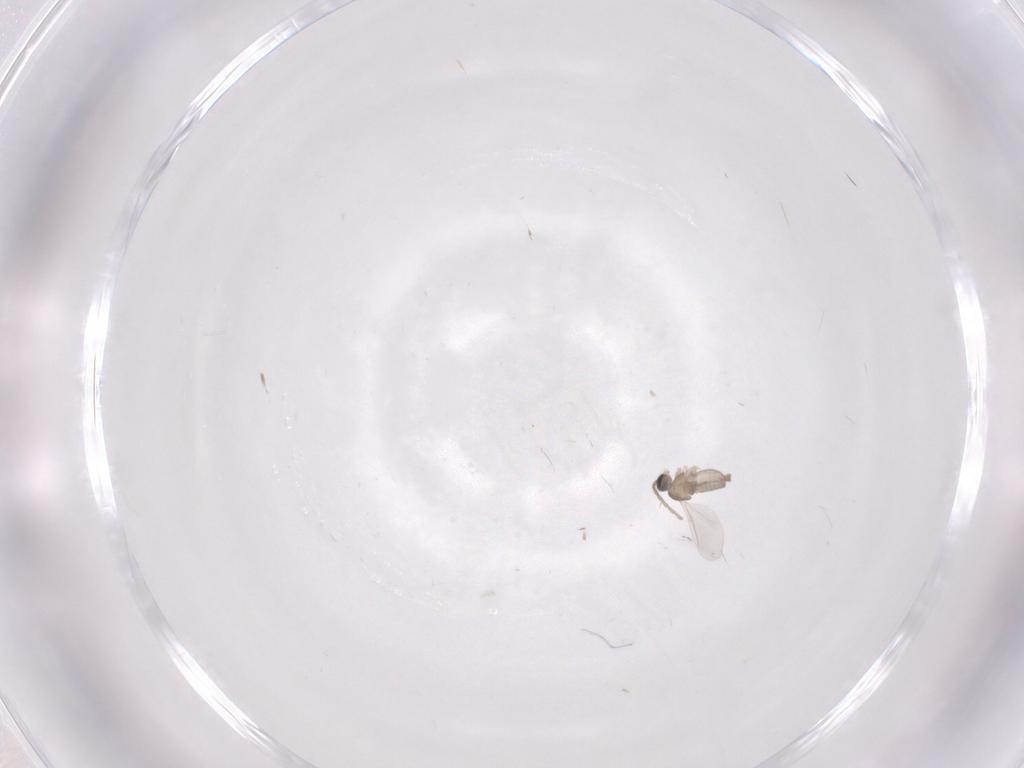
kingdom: Animalia
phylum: Arthropoda
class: Insecta
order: Diptera
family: Cecidomyiidae
